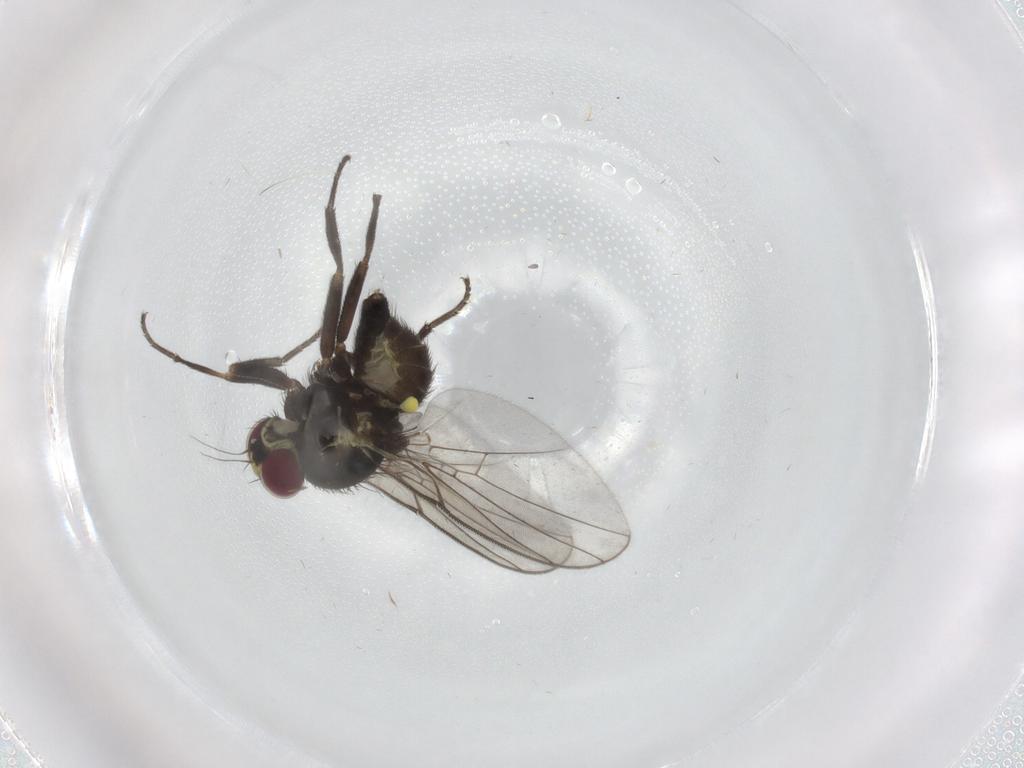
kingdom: Animalia
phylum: Arthropoda
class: Insecta
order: Diptera
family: Agromyzidae
